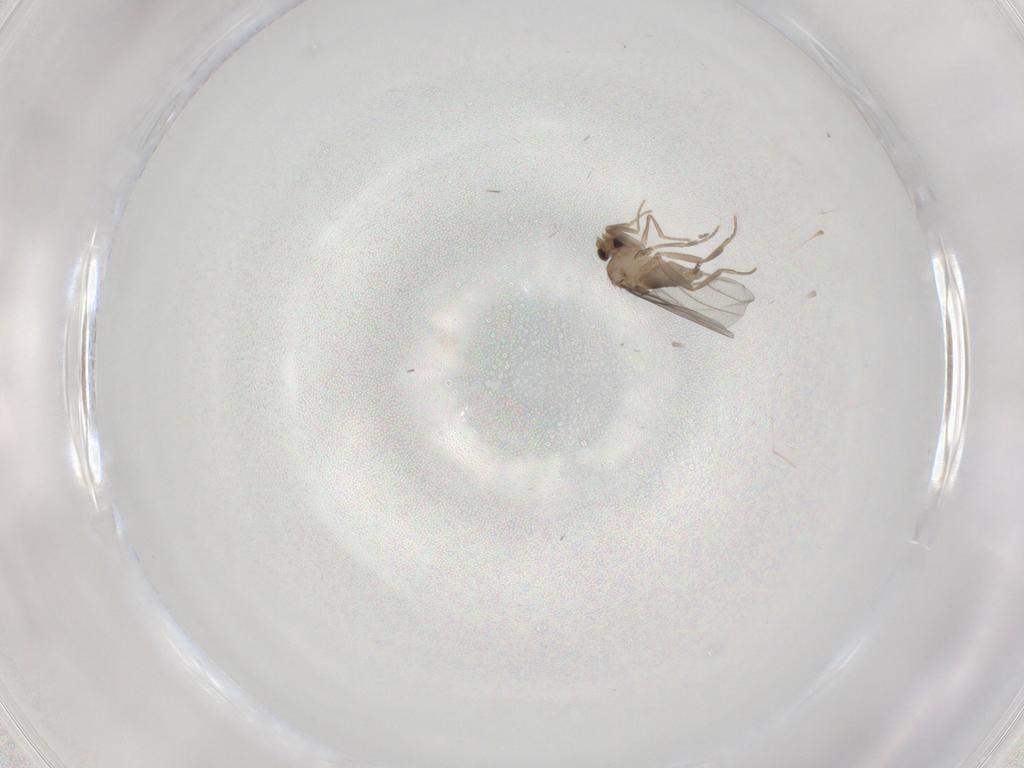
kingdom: Animalia
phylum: Arthropoda
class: Insecta
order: Diptera
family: Cecidomyiidae
